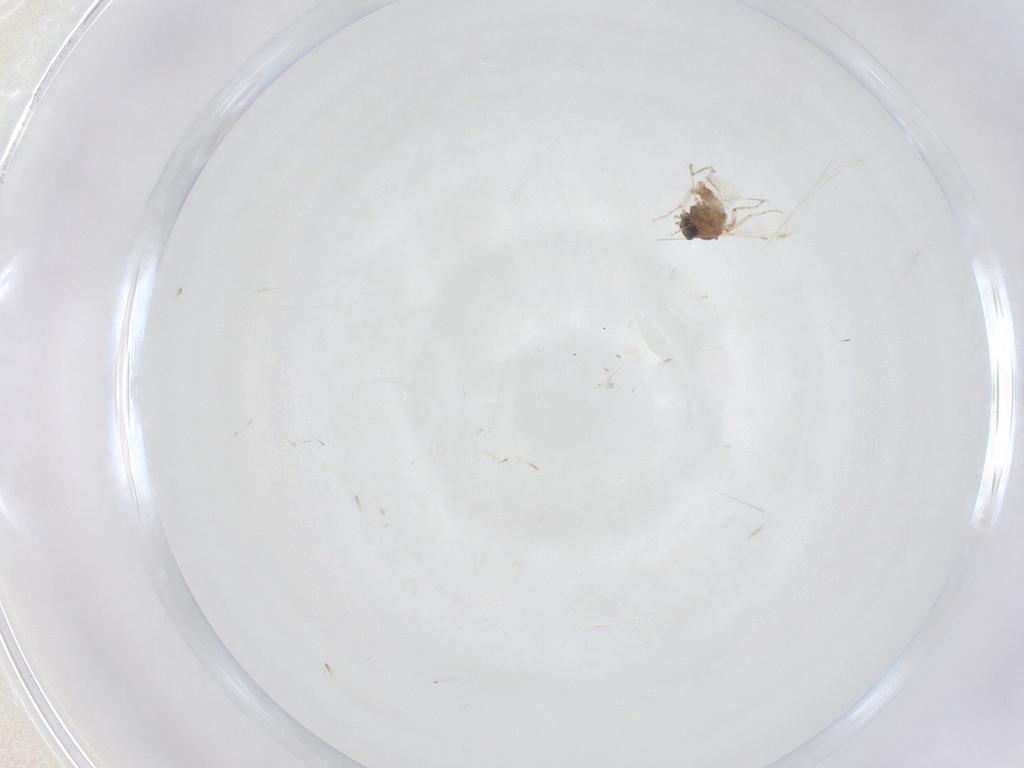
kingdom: Animalia
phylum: Arthropoda
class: Insecta
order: Diptera
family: Ceratopogonidae
